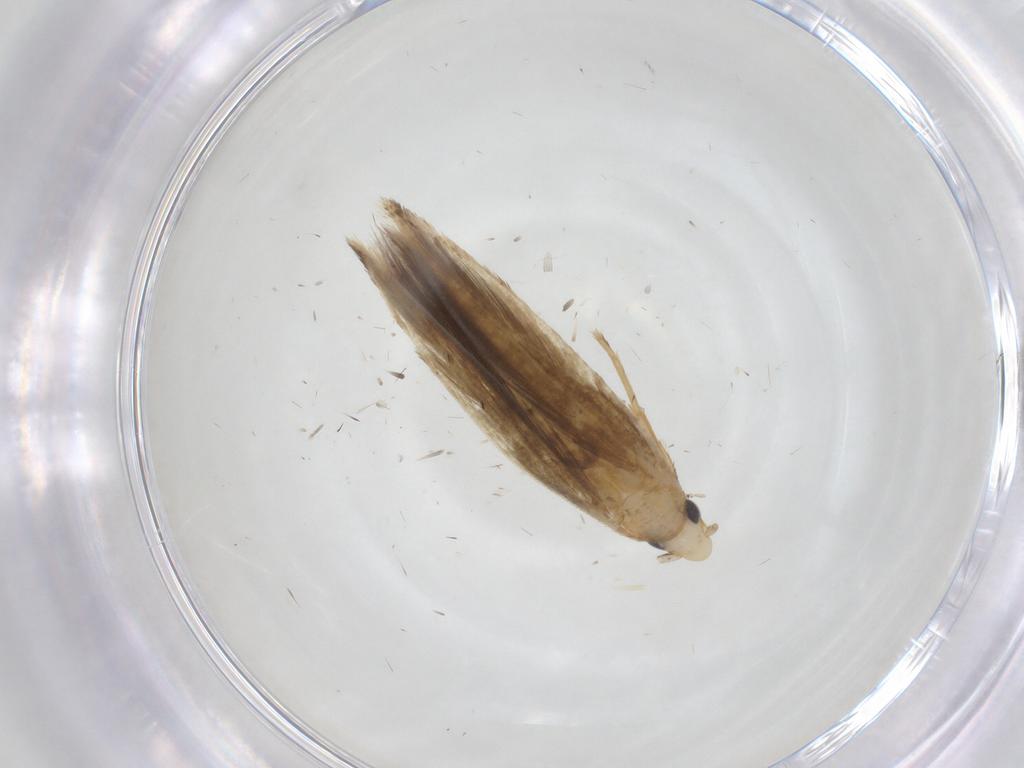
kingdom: Animalia
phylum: Arthropoda
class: Insecta
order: Lepidoptera
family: Tineidae
